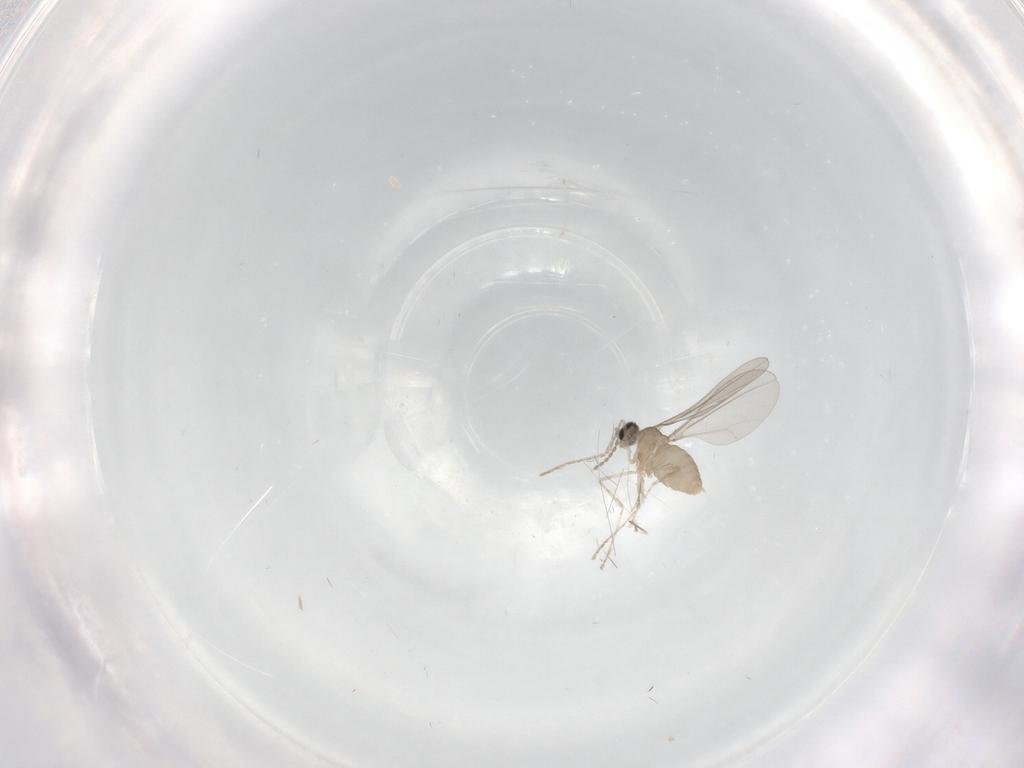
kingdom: Animalia
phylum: Arthropoda
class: Insecta
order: Diptera
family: Cecidomyiidae
